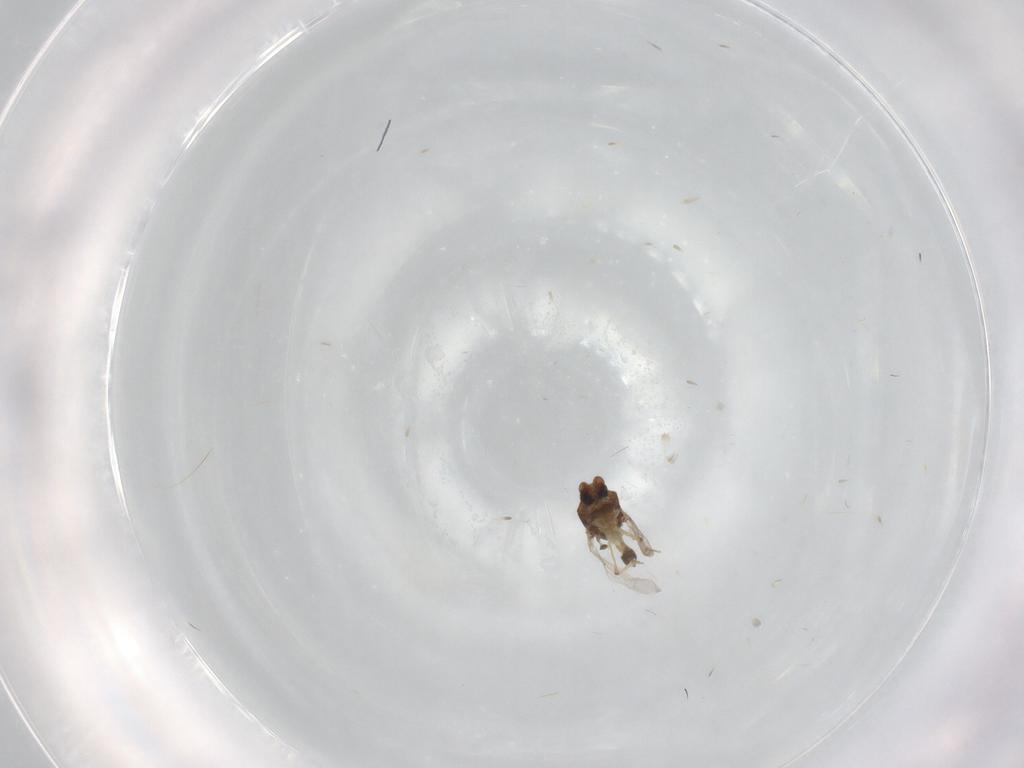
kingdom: Animalia
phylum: Arthropoda
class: Insecta
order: Diptera
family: Ceratopogonidae
